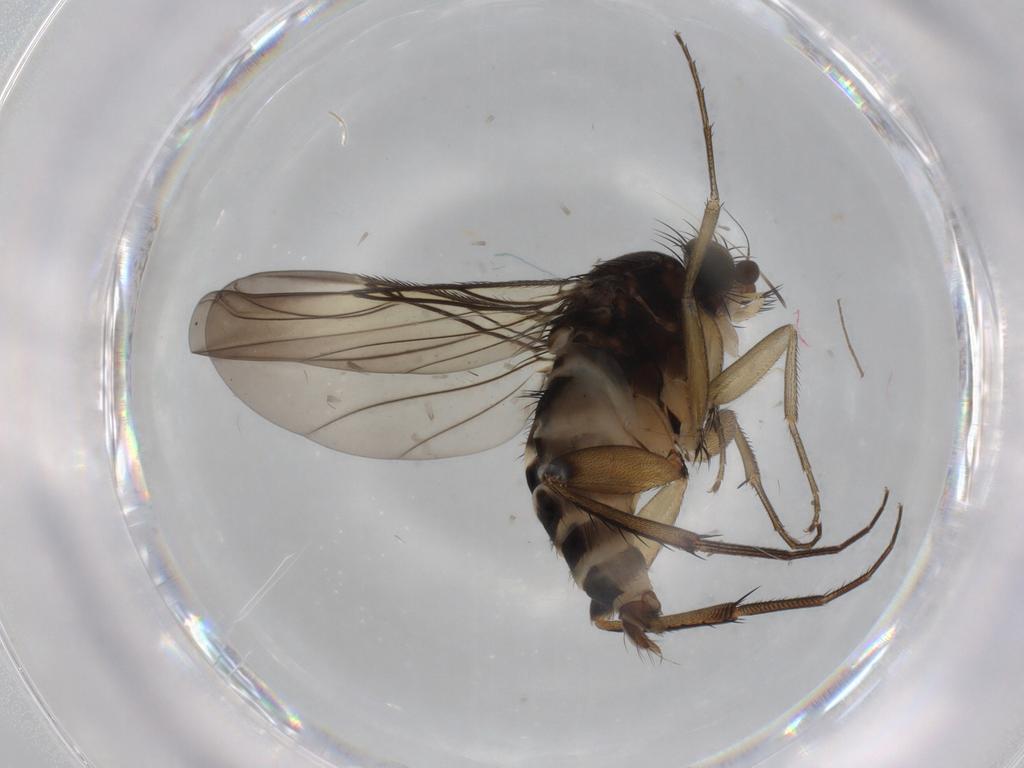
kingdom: Animalia
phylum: Arthropoda
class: Insecta
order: Diptera
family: Phoridae
